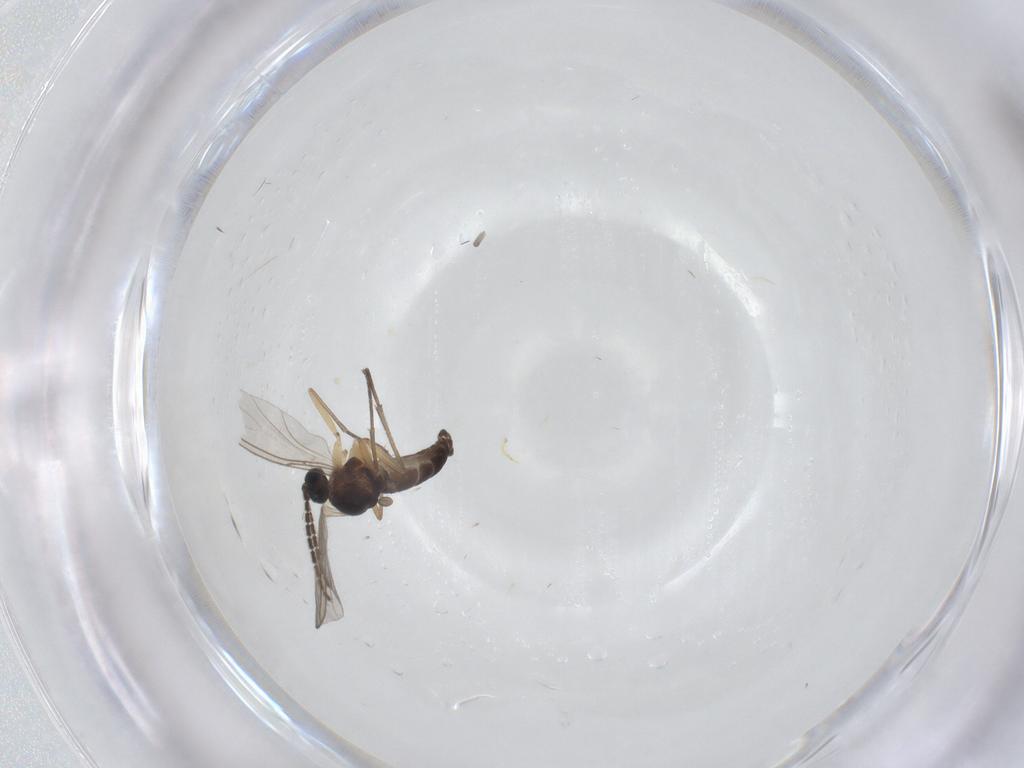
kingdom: Animalia
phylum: Arthropoda
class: Insecta
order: Diptera
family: Sciaridae
